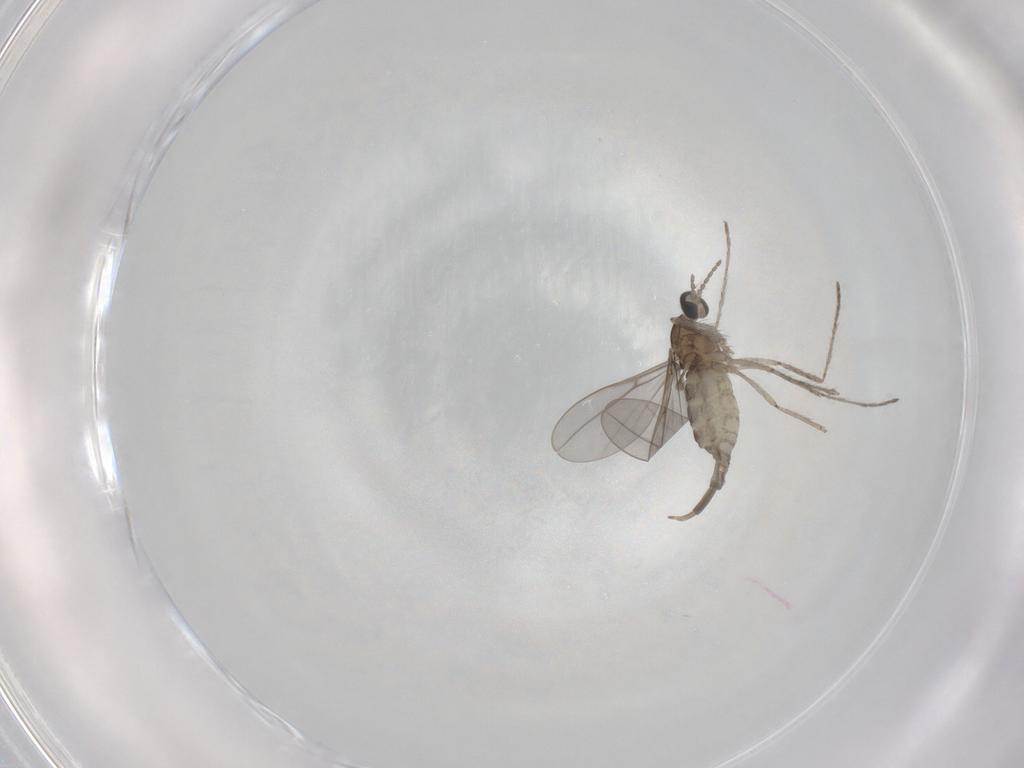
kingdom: Animalia
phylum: Arthropoda
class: Insecta
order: Diptera
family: Cecidomyiidae
